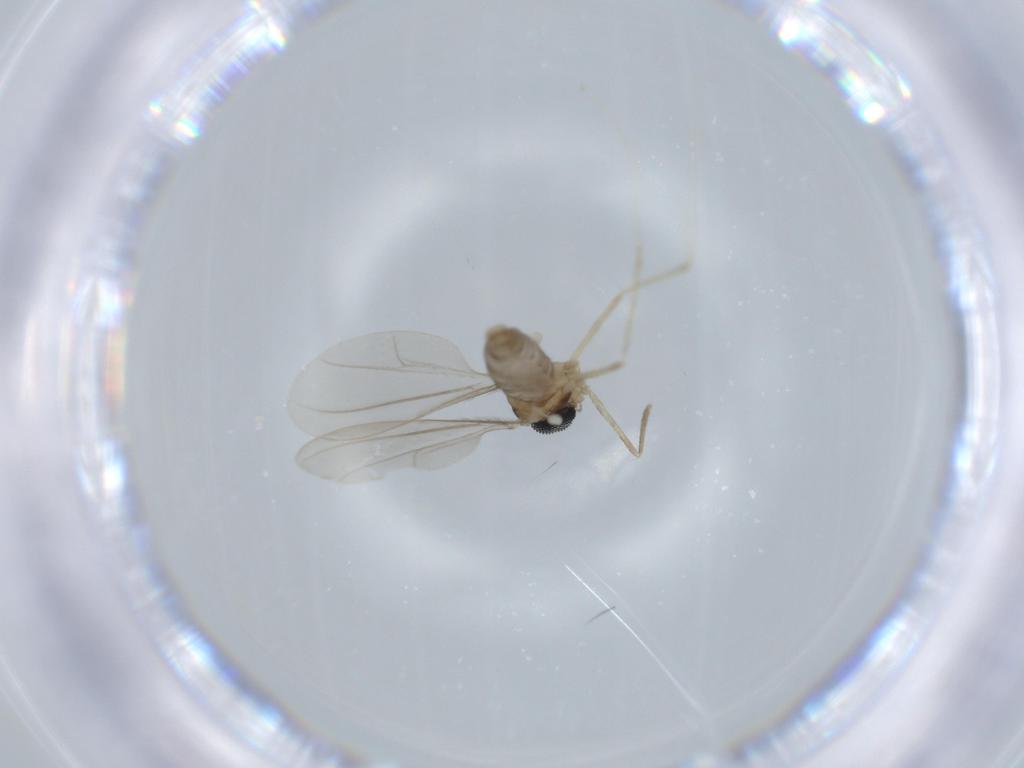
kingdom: Animalia
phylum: Arthropoda
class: Insecta
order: Diptera
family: Cecidomyiidae
